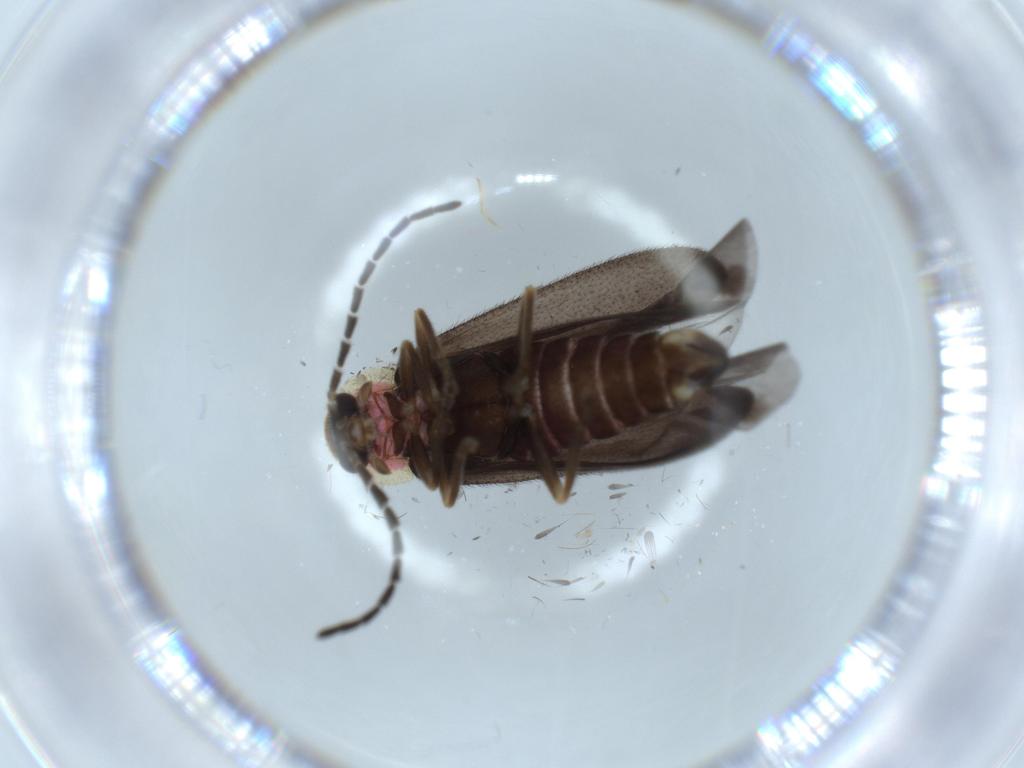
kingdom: Animalia
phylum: Arthropoda
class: Insecta
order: Coleoptera
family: Lampyridae
